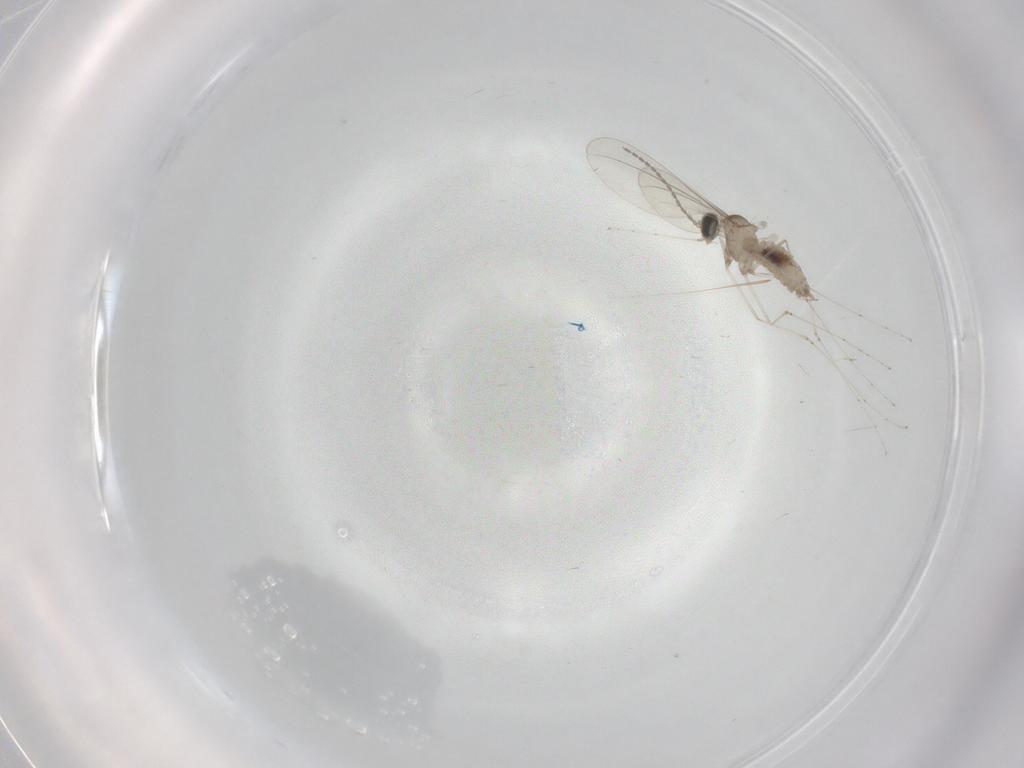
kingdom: Animalia
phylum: Arthropoda
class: Insecta
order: Diptera
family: Cecidomyiidae
